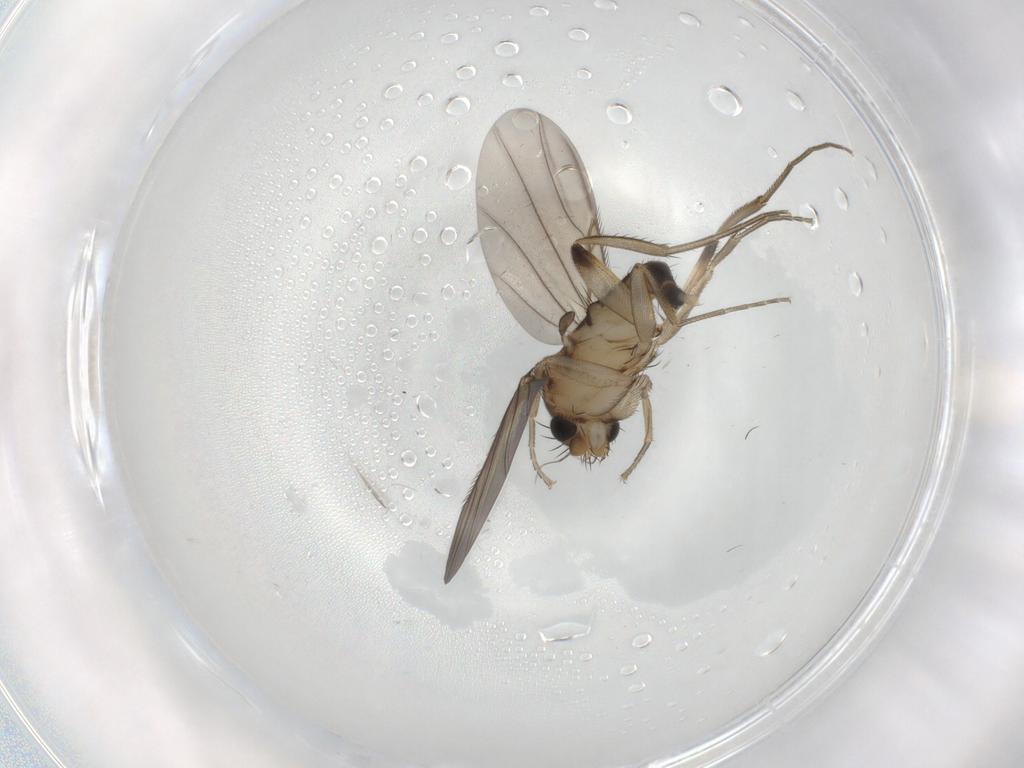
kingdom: Animalia
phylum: Arthropoda
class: Insecta
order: Diptera
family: Phoridae
